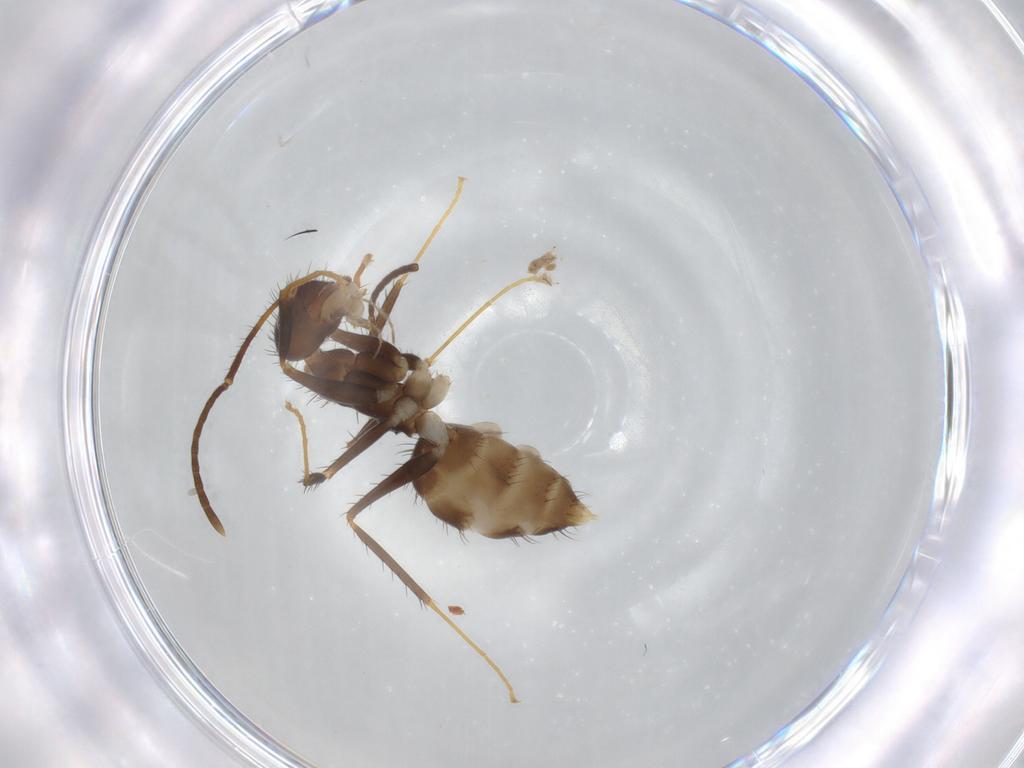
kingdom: Animalia
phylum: Arthropoda
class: Insecta
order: Hymenoptera
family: Formicidae
